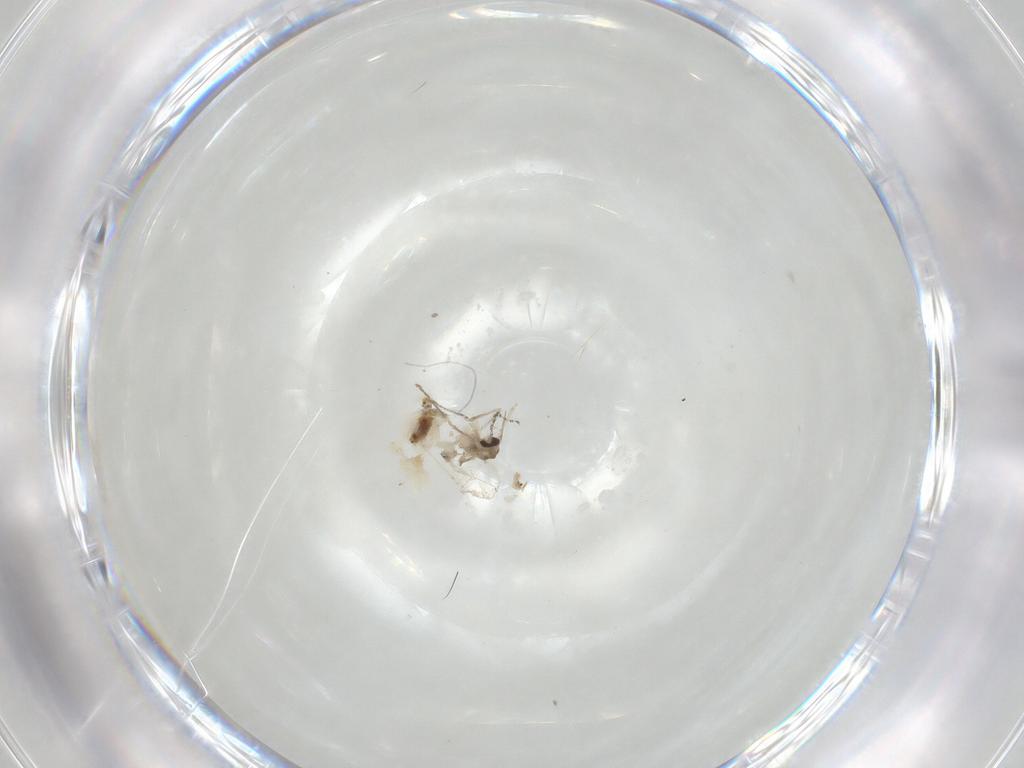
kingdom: Animalia
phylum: Arthropoda
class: Insecta
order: Diptera
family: Cecidomyiidae
